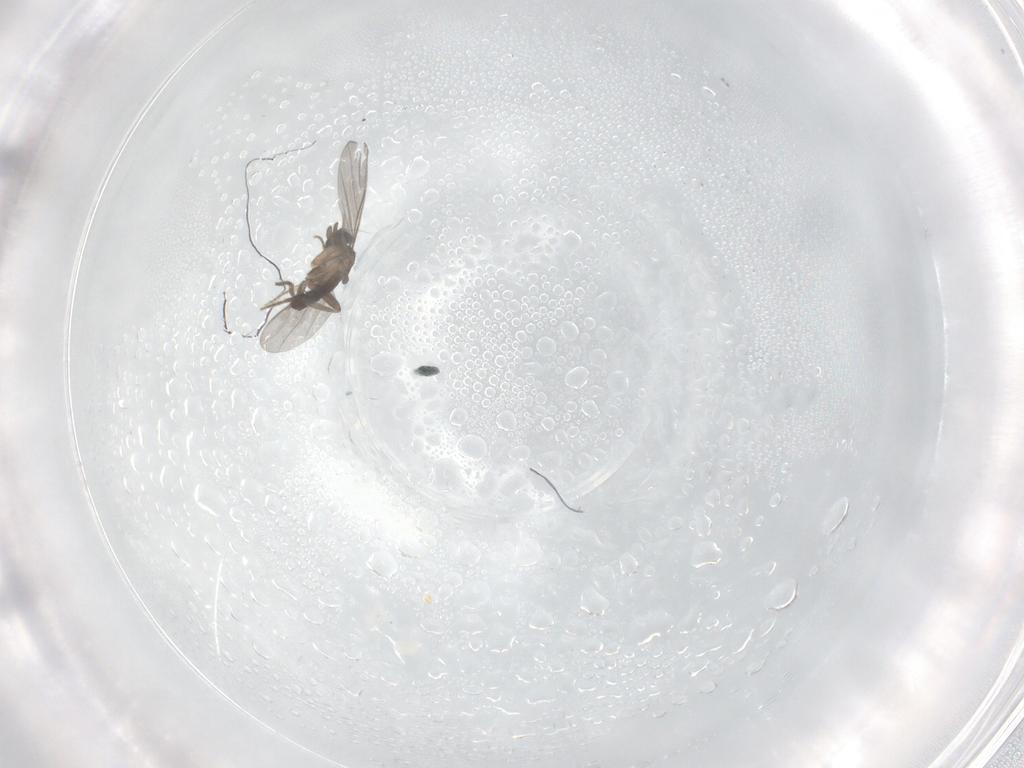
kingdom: Animalia
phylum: Arthropoda
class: Insecta
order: Diptera
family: Sciaridae
